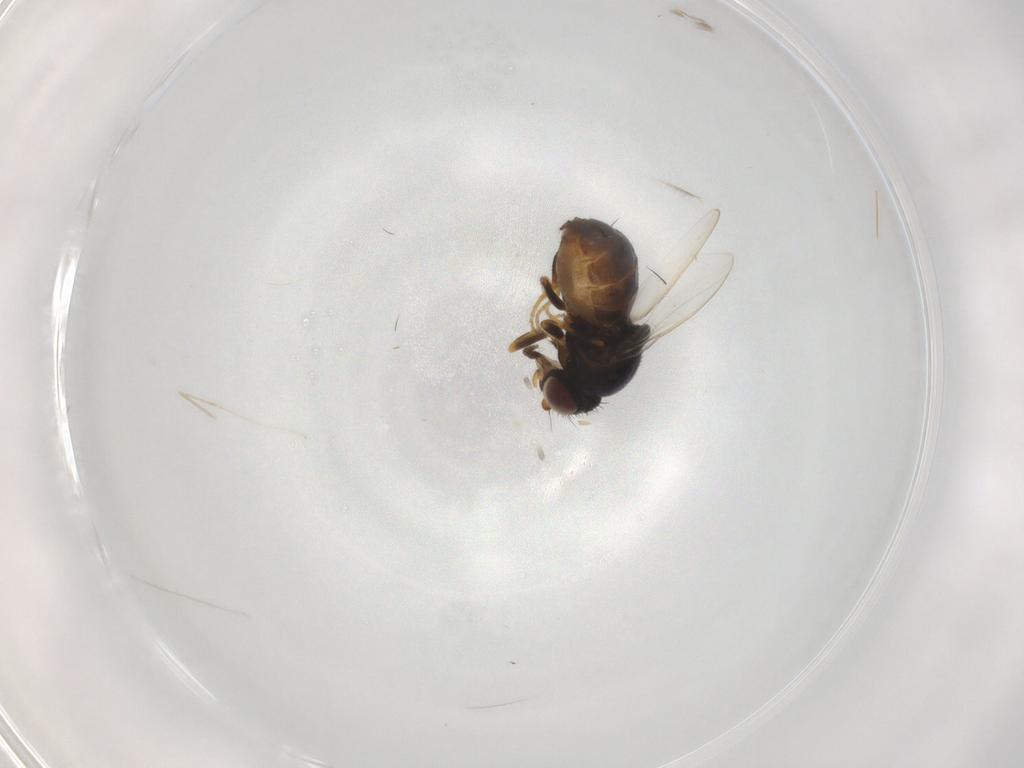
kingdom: Animalia
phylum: Arthropoda
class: Insecta
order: Diptera
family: Chloropidae
